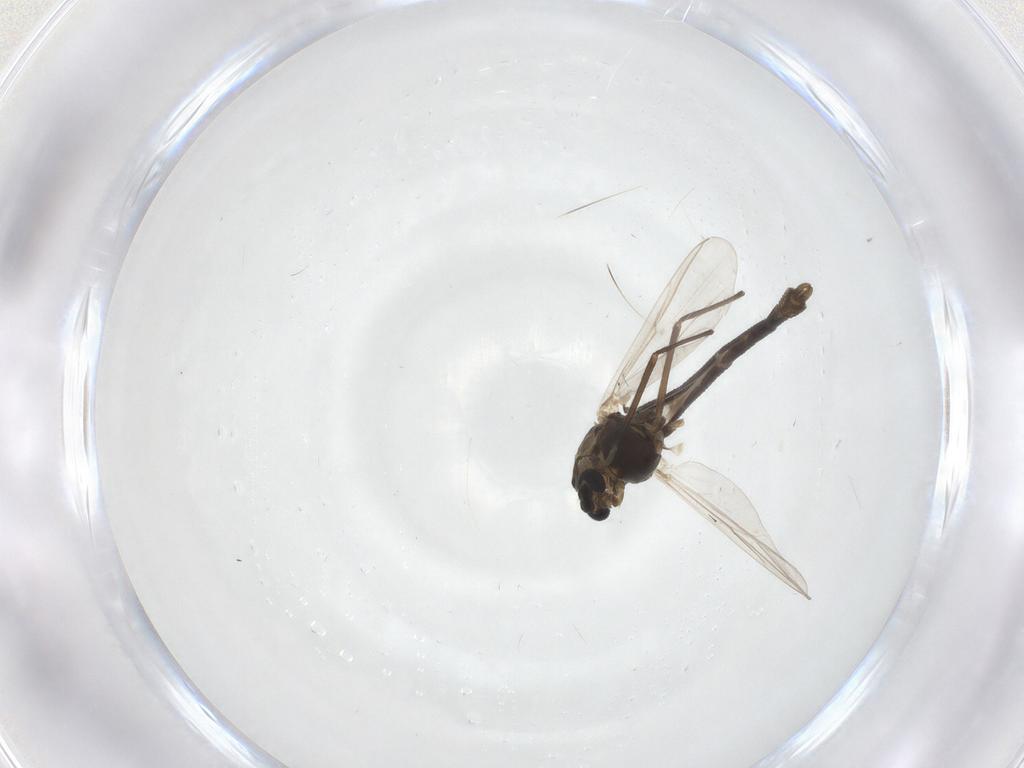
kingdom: Animalia
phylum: Arthropoda
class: Insecta
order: Diptera
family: Chironomidae
